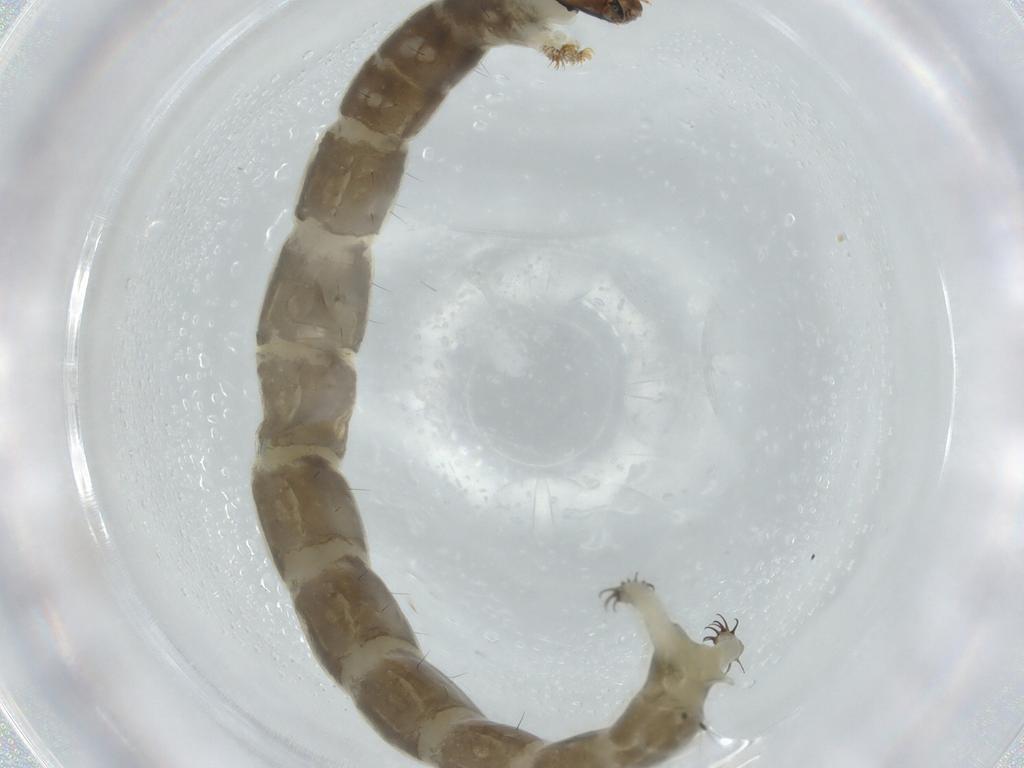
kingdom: Animalia
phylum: Arthropoda
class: Insecta
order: Diptera
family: Chironomidae
